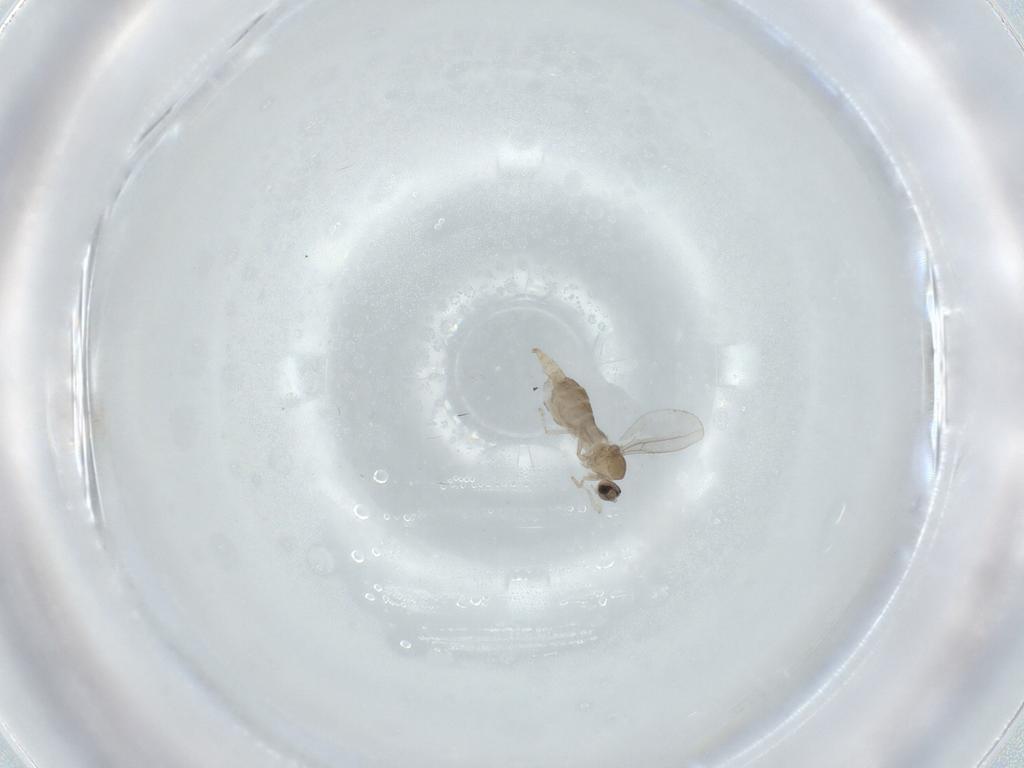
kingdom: Animalia
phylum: Arthropoda
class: Insecta
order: Diptera
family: Cecidomyiidae
